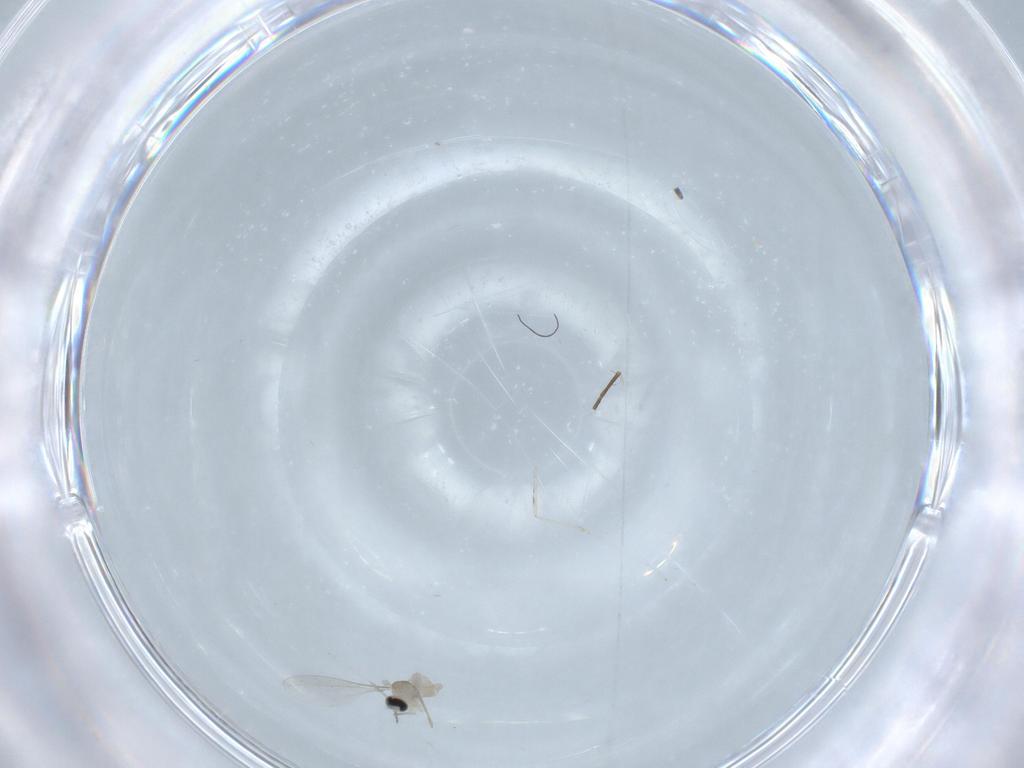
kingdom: Animalia
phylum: Arthropoda
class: Insecta
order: Diptera
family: Cecidomyiidae
